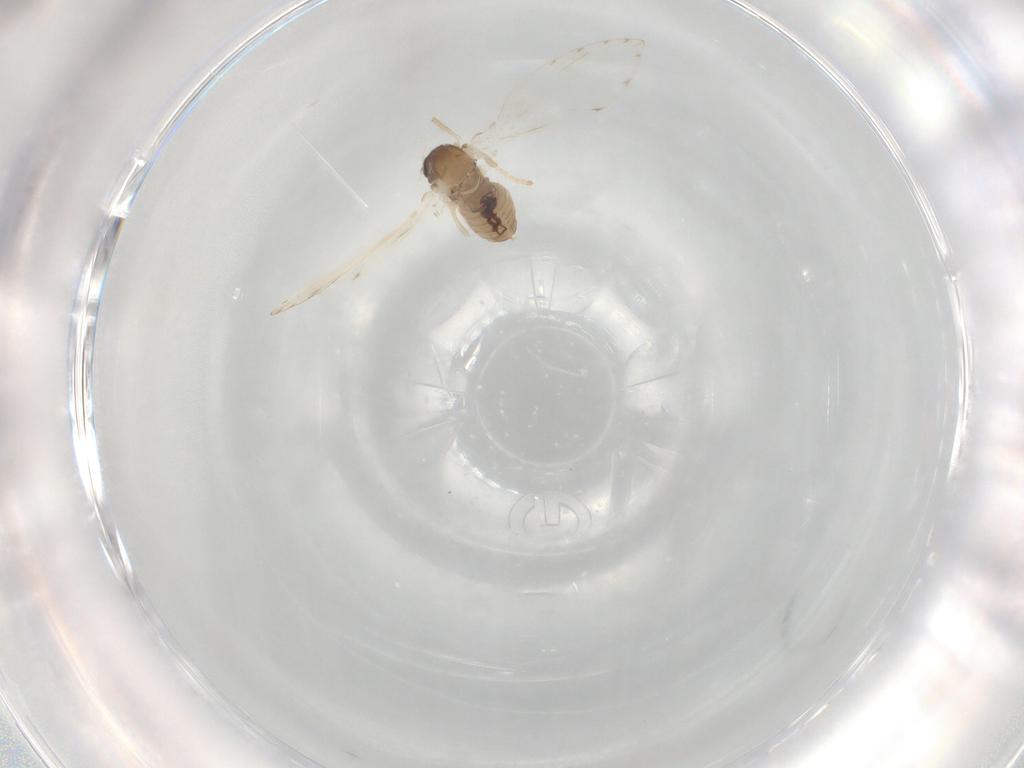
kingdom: Animalia
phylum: Arthropoda
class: Insecta
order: Diptera
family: Psychodidae
